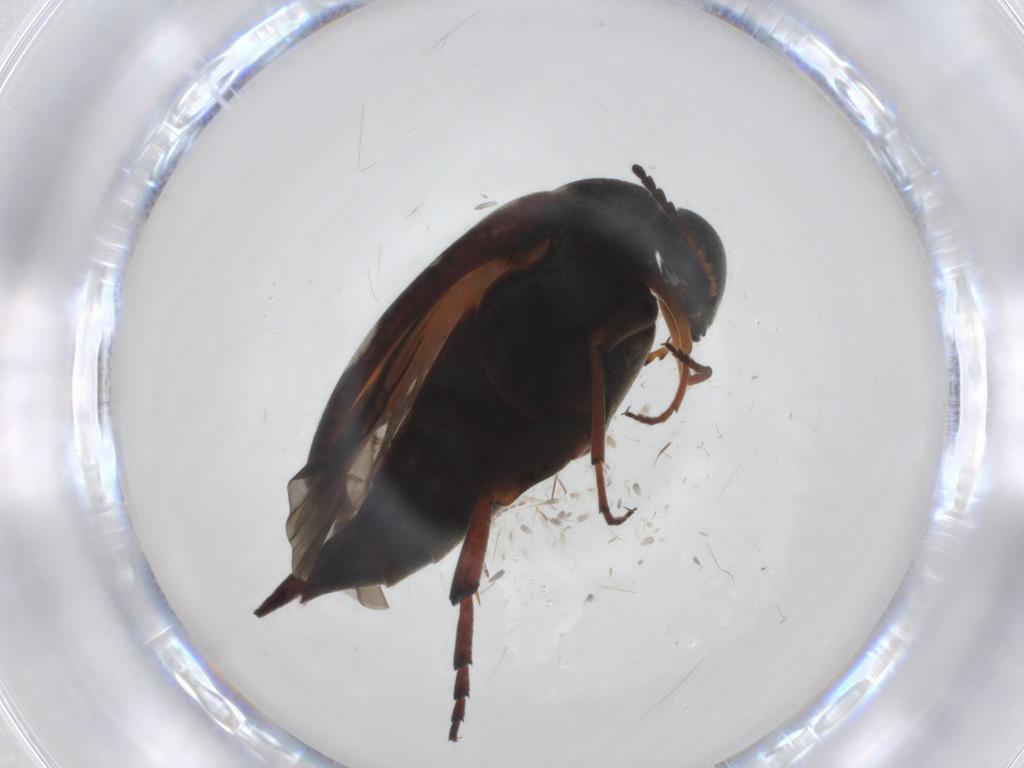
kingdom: Animalia
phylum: Arthropoda
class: Insecta
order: Coleoptera
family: Mordellidae
